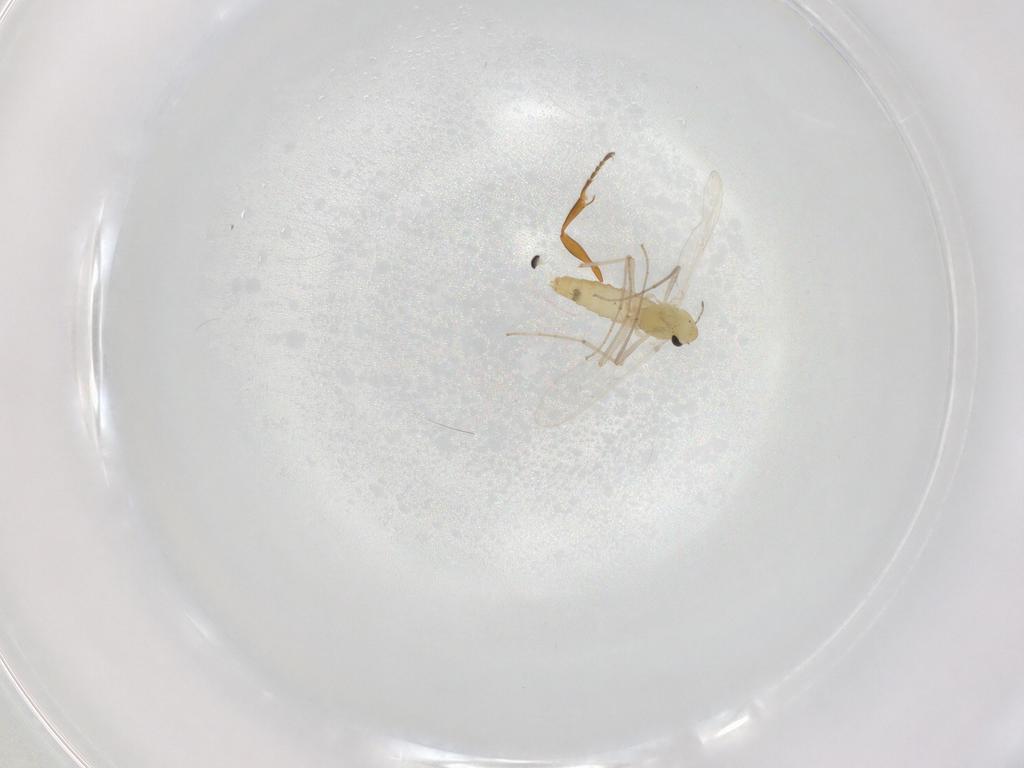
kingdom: Animalia
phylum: Arthropoda
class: Insecta
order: Diptera
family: Chironomidae
